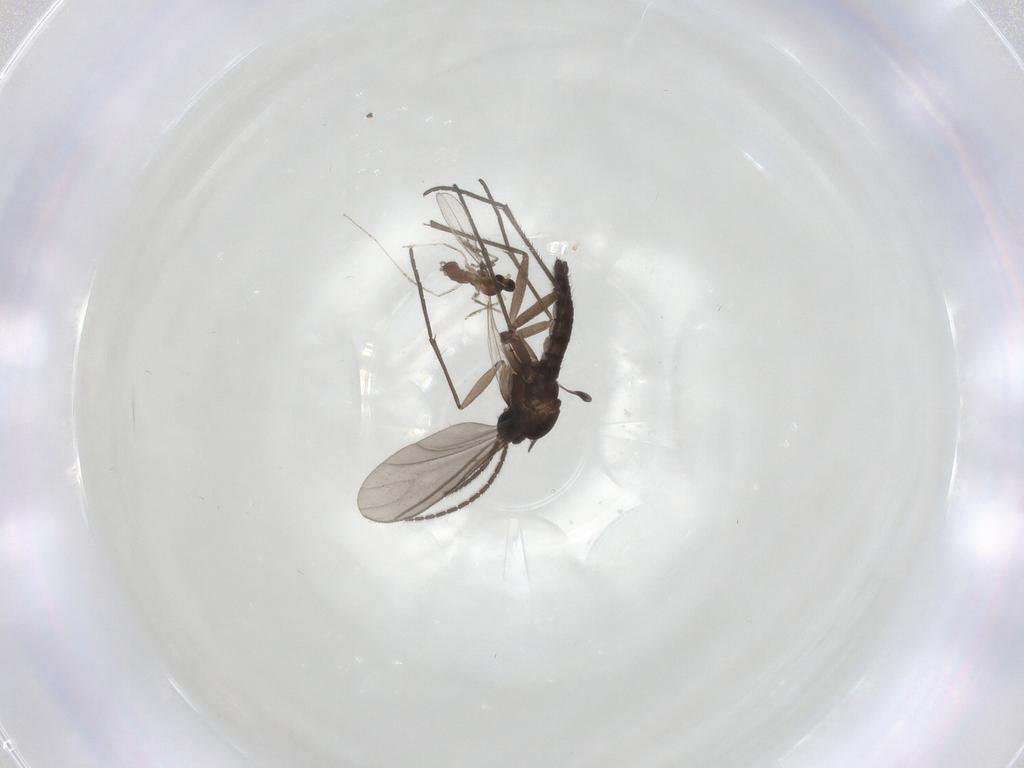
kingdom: Animalia
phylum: Arthropoda
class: Insecta
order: Diptera
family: Sciaridae
